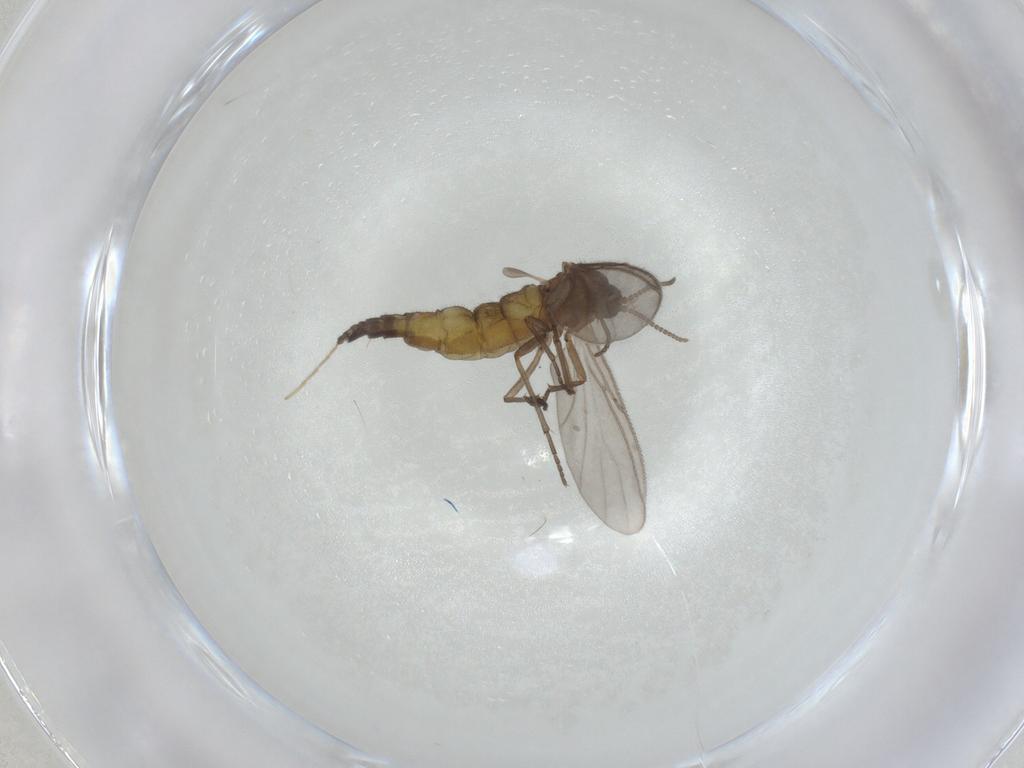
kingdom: Animalia
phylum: Arthropoda
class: Insecta
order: Diptera
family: Sciaridae
